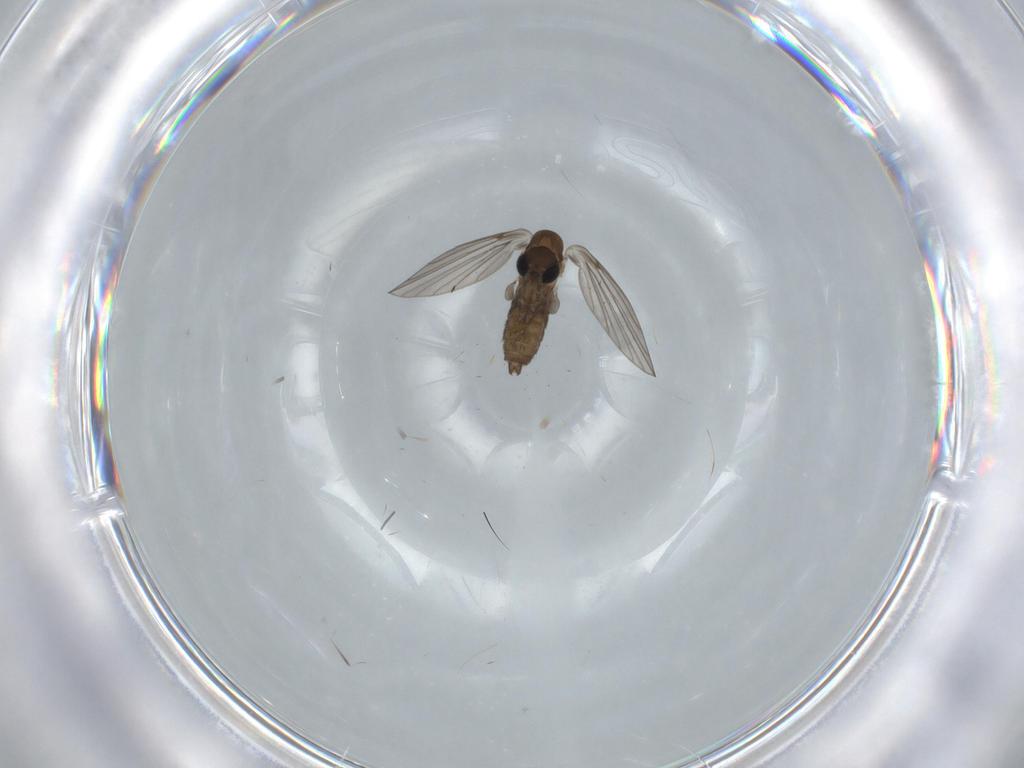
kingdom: Animalia
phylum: Arthropoda
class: Insecta
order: Diptera
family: Psychodidae
